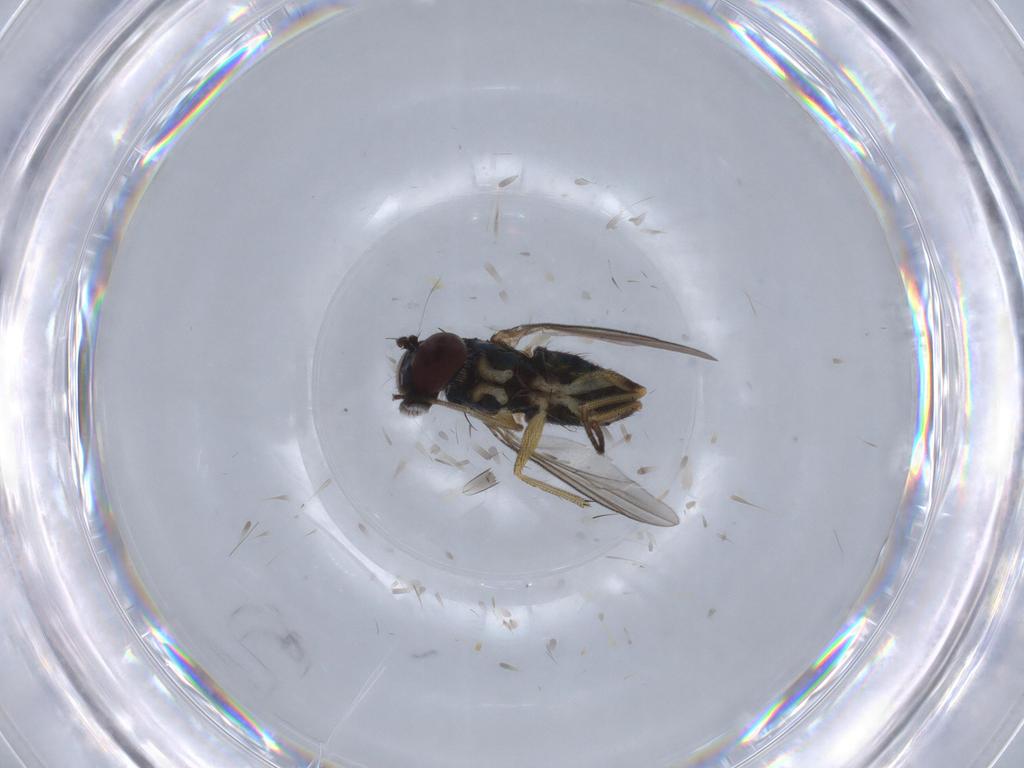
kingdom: Animalia
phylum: Arthropoda
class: Insecta
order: Diptera
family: Dolichopodidae
